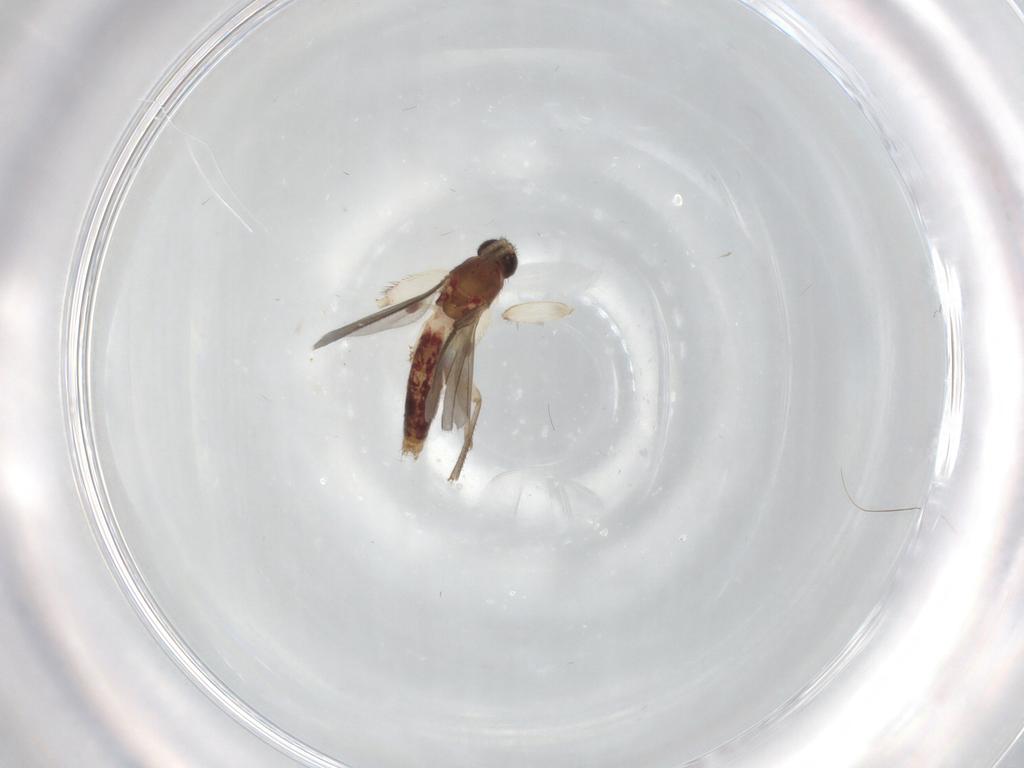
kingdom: Animalia
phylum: Arthropoda
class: Insecta
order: Diptera
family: Mycetophilidae
